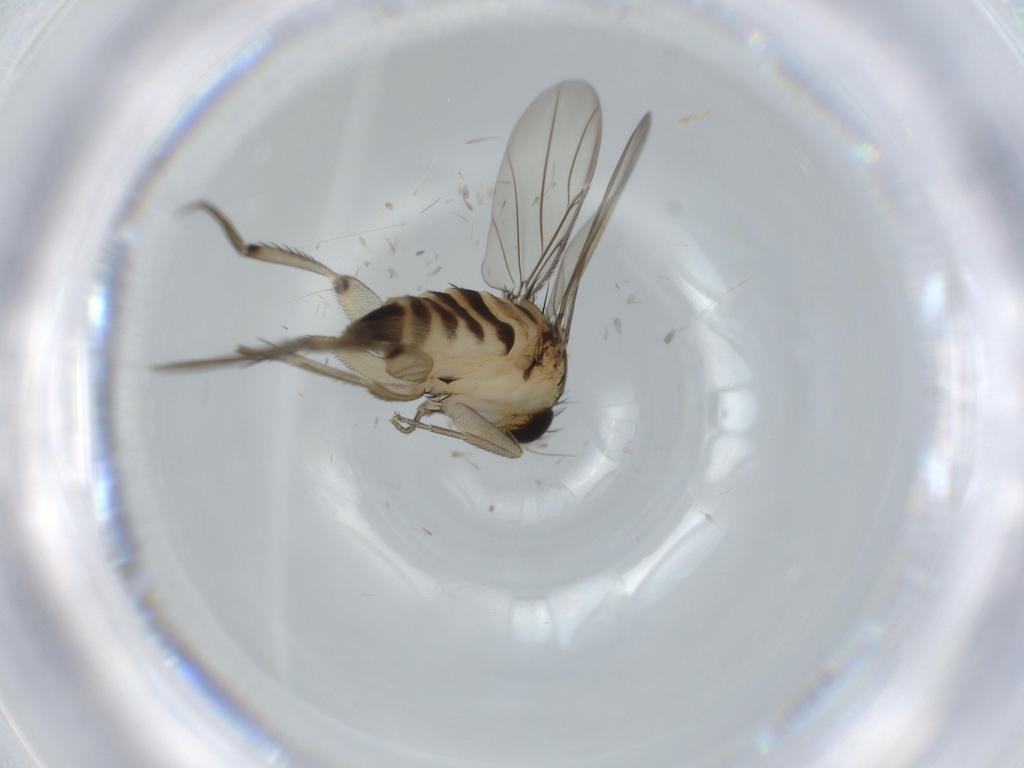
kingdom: Animalia
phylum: Arthropoda
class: Insecta
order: Diptera
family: Phoridae
